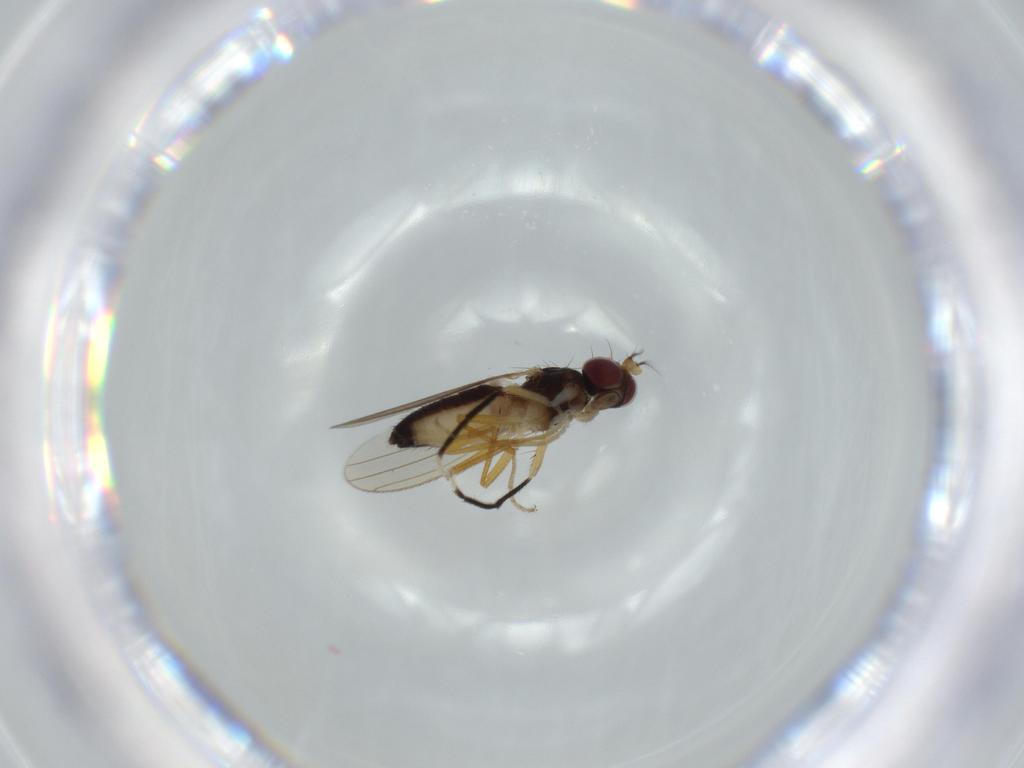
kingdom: Animalia
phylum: Arthropoda
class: Insecta
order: Diptera
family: Anthomyzidae
